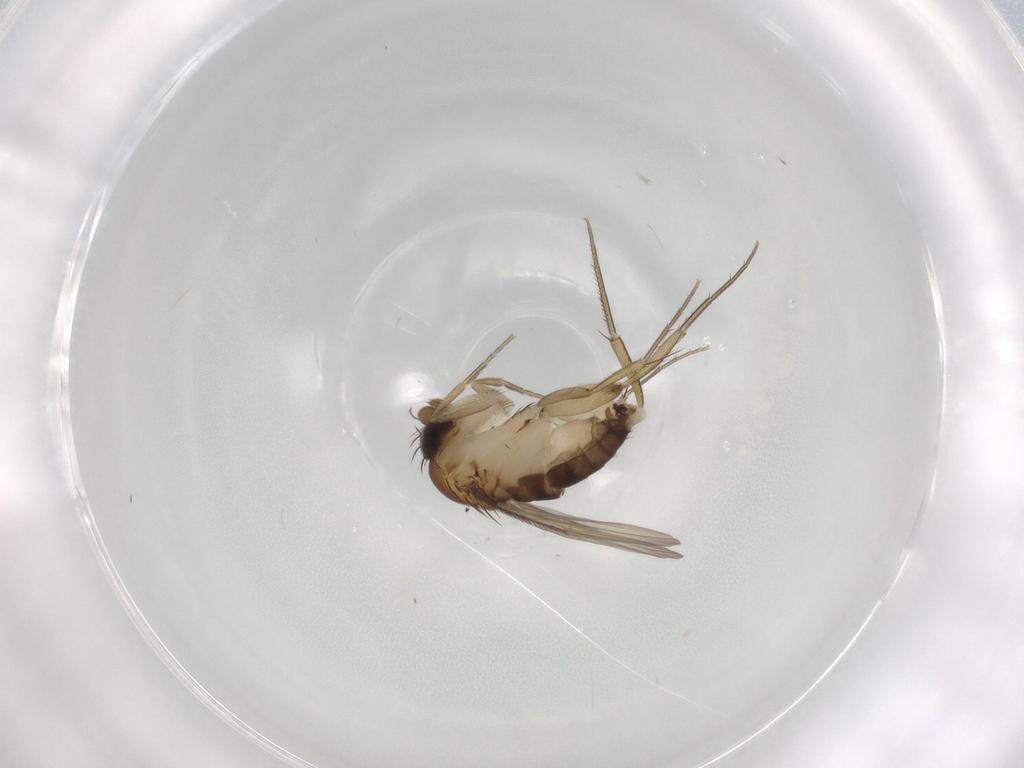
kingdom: Animalia
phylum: Arthropoda
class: Insecta
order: Diptera
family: Phoridae
